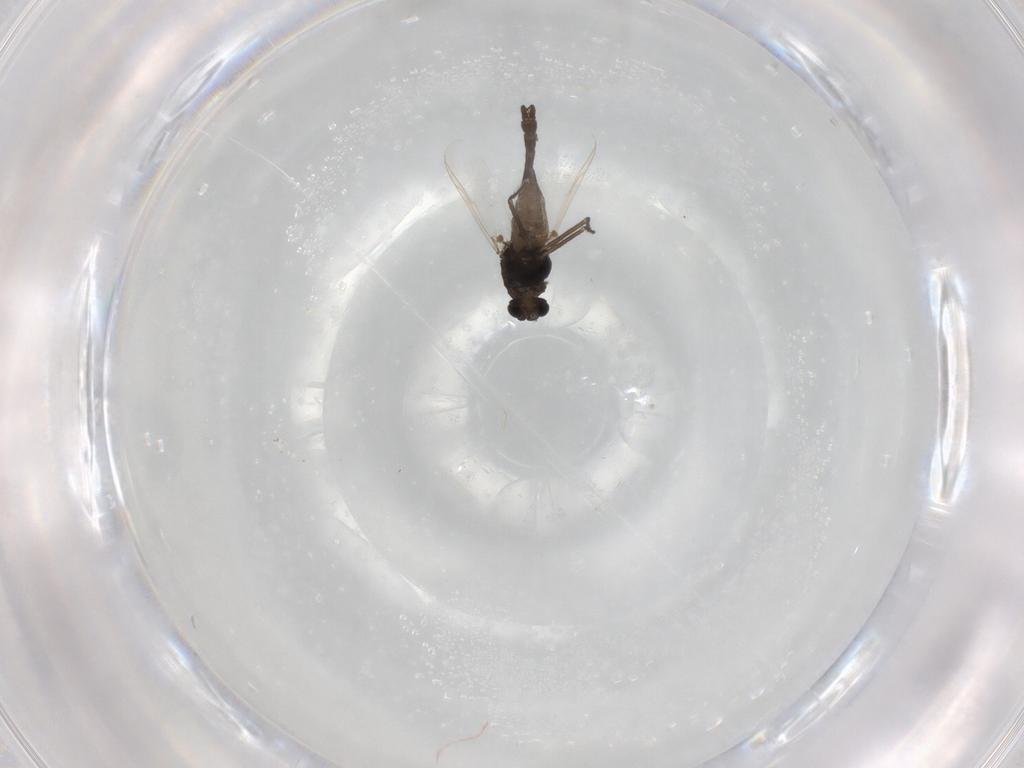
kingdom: Animalia
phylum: Arthropoda
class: Insecta
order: Diptera
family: Chironomidae
